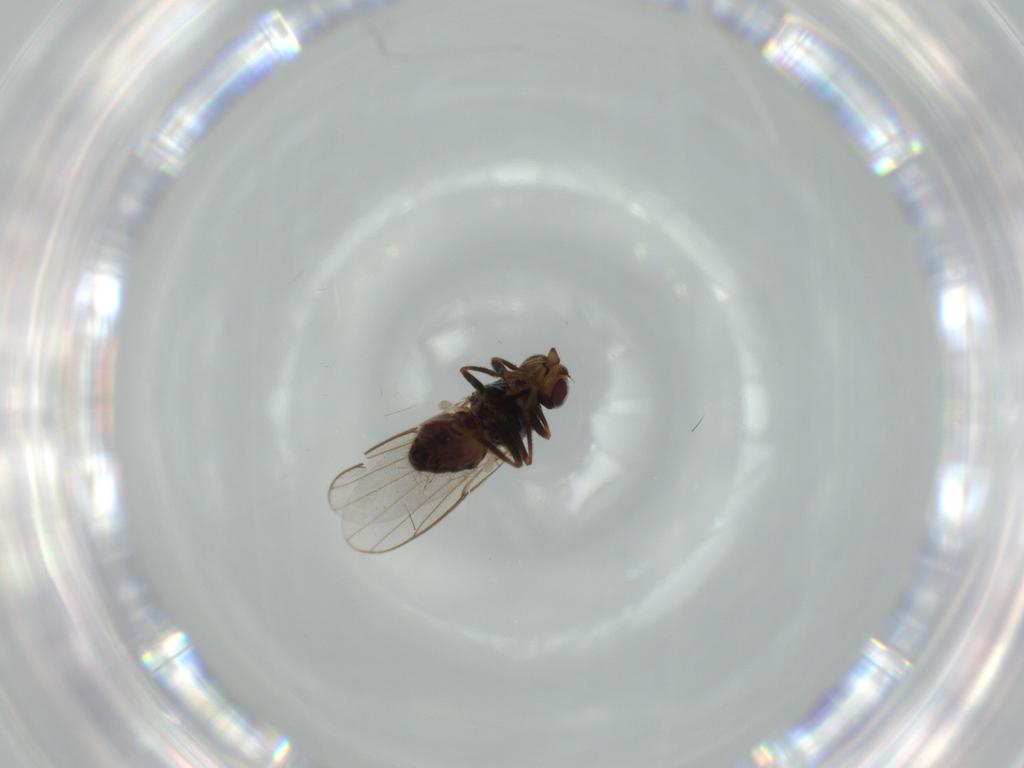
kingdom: Animalia
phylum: Arthropoda
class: Insecta
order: Diptera
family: Chloropidae
